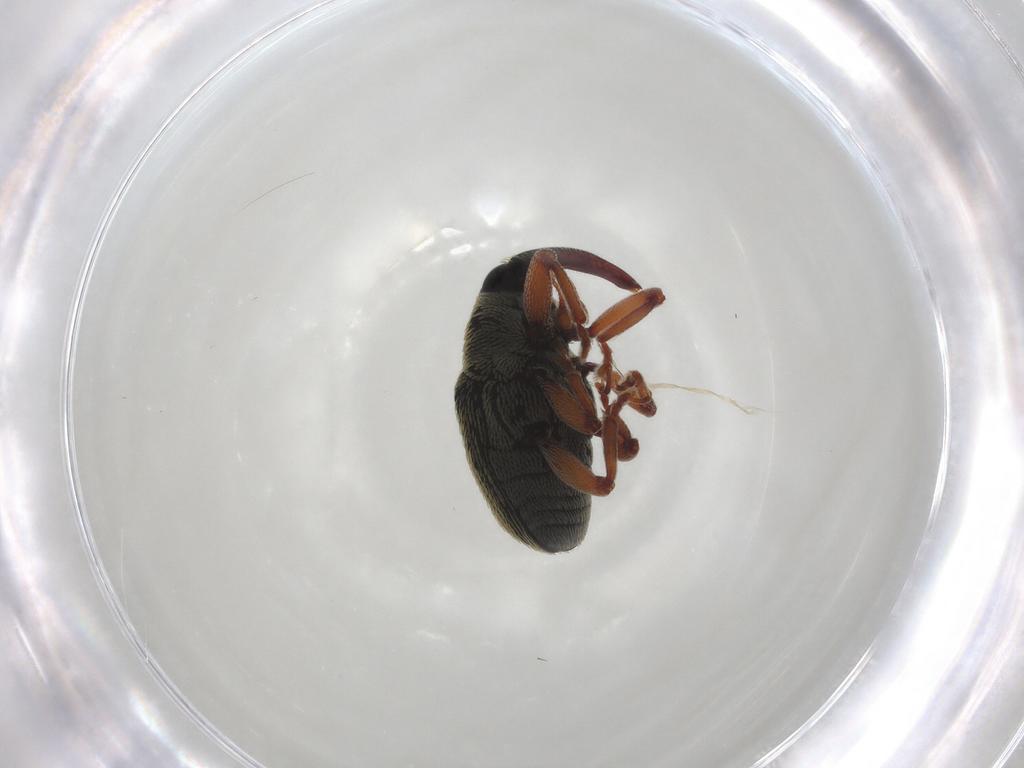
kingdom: Animalia
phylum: Arthropoda
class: Insecta
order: Coleoptera
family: Curculionidae
